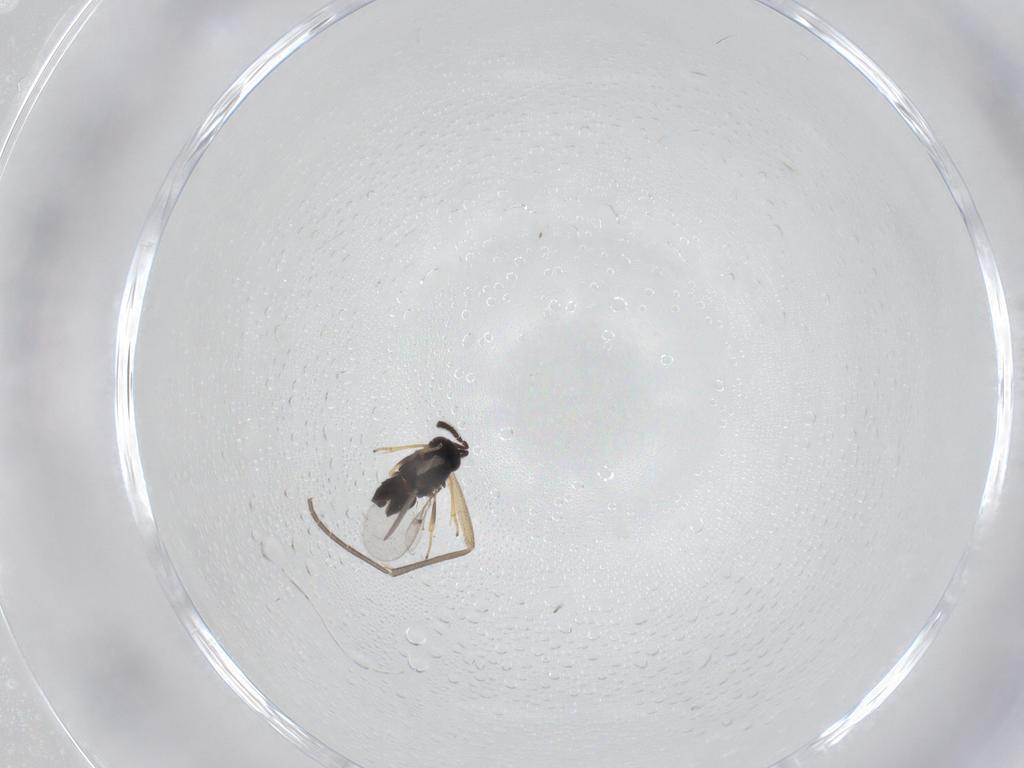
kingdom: Animalia
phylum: Arthropoda
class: Insecta
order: Diptera
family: Sciaridae
